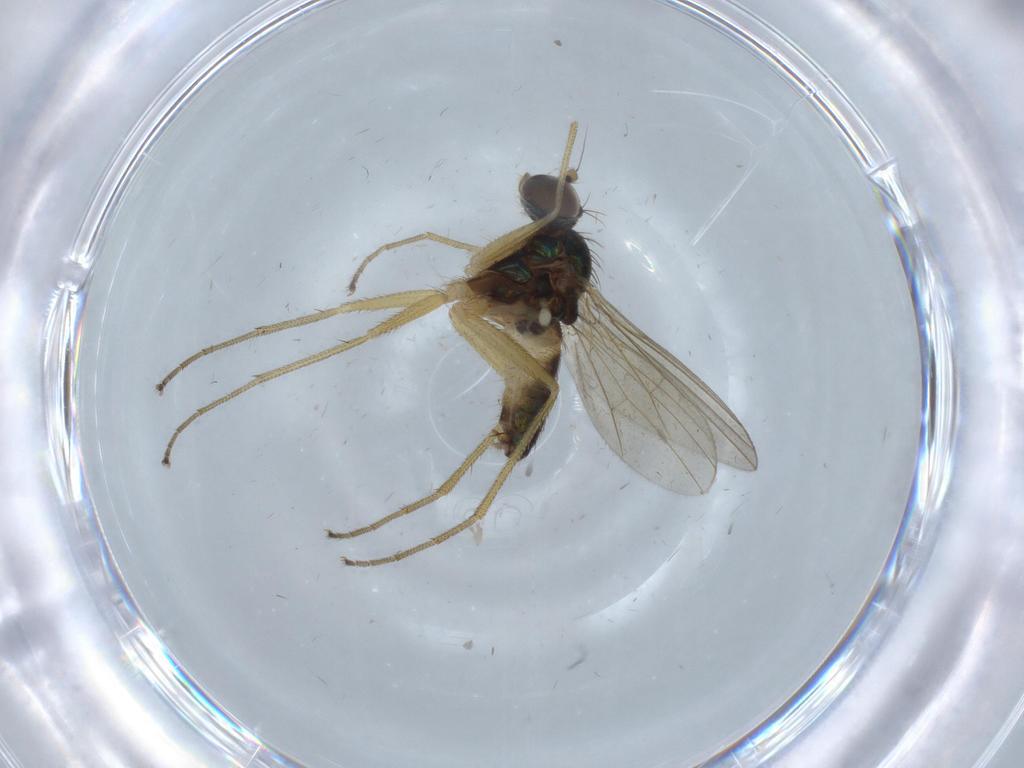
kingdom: Animalia
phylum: Arthropoda
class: Insecta
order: Diptera
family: Dolichopodidae
